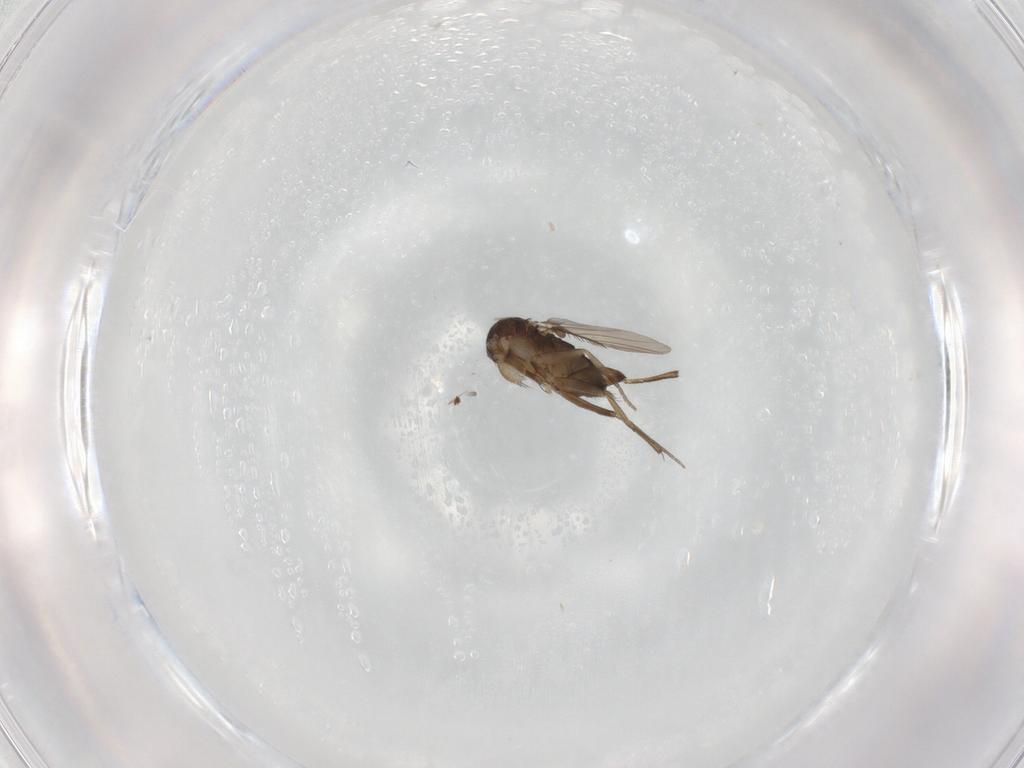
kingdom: Animalia
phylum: Arthropoda
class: Insecta
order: Diptera
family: Phoridae
